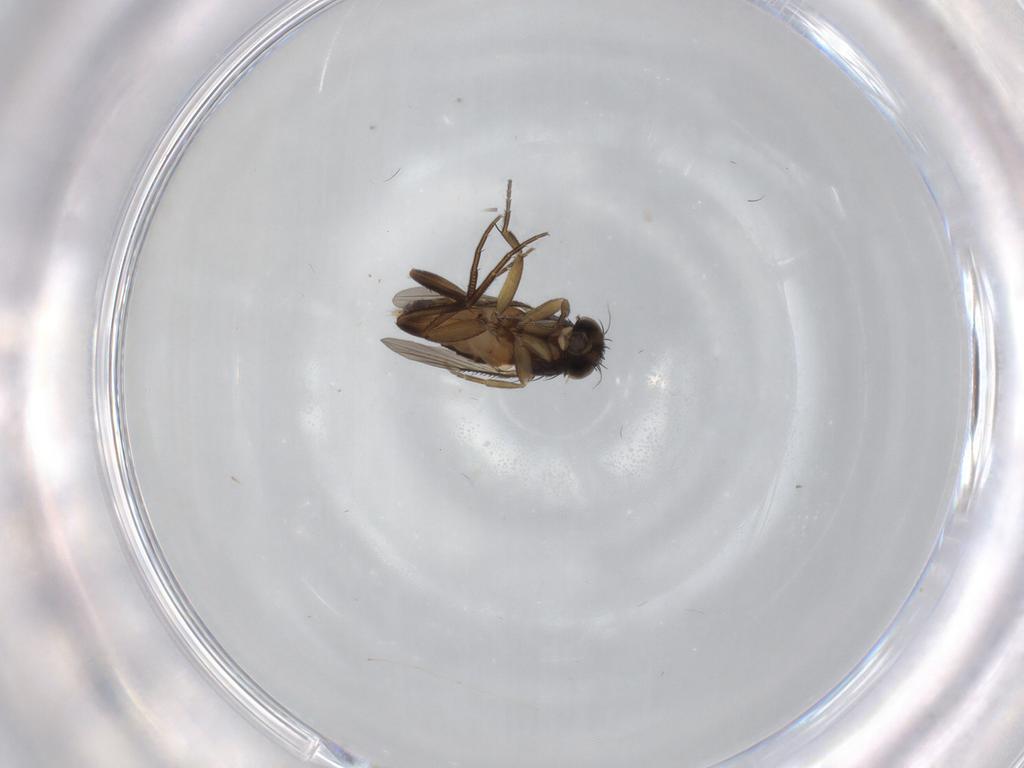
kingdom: Animalia
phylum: Arthropoda
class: Insecta
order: Diptera
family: Phoridae
